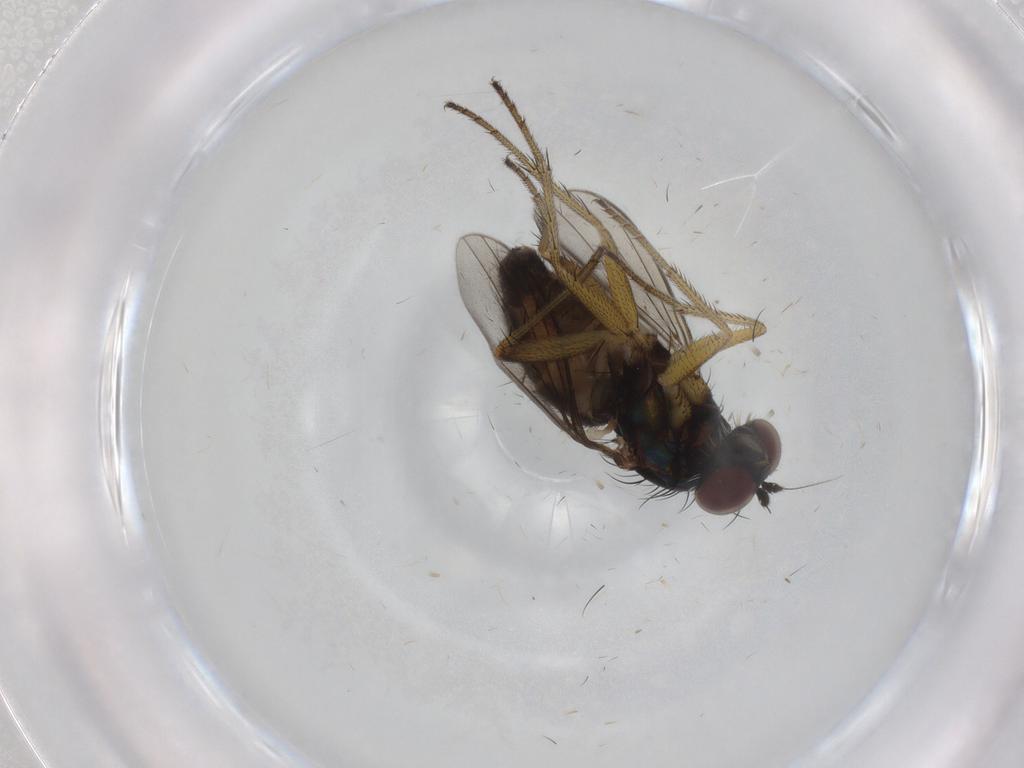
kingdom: Animalia
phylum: Arthropoda
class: Insecta
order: Diptera
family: Dolichopodidae
